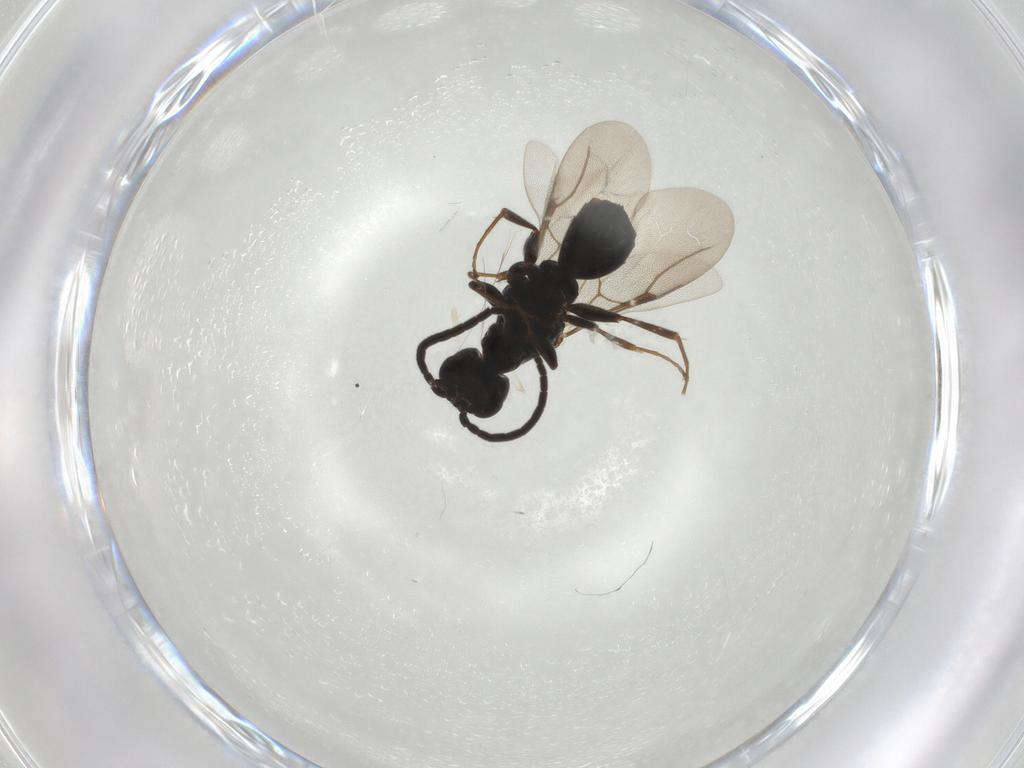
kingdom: Animalia
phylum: Arthropoda
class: Insecta
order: Hymenoptera
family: Bethylidae
